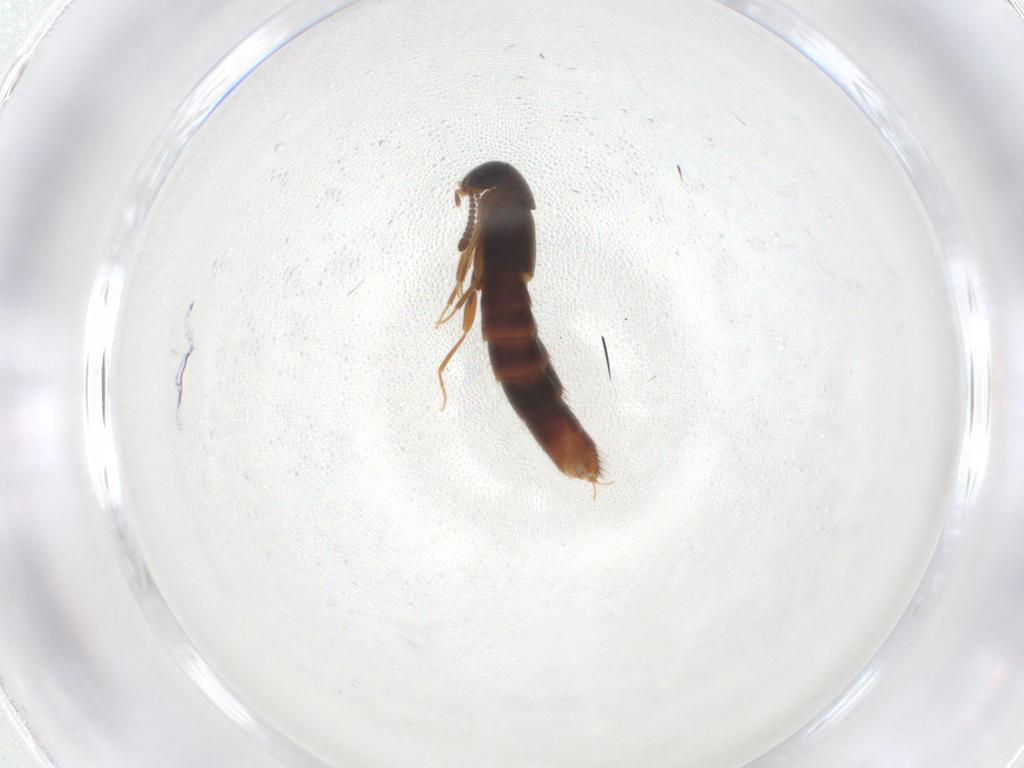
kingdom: Animalia
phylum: Arthropoda
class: Insecta
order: Coleoptera
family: Staphylinidae
